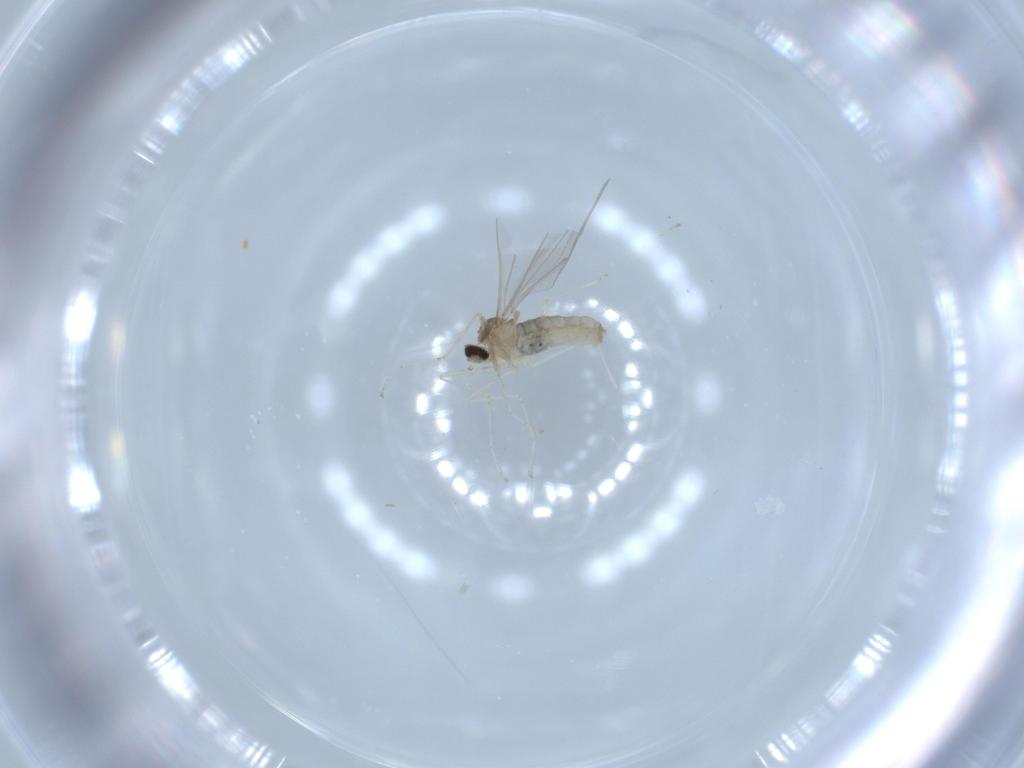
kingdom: Animalia
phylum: Arthropoda
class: Insecta
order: Diptera
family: Cecidomyiidae
